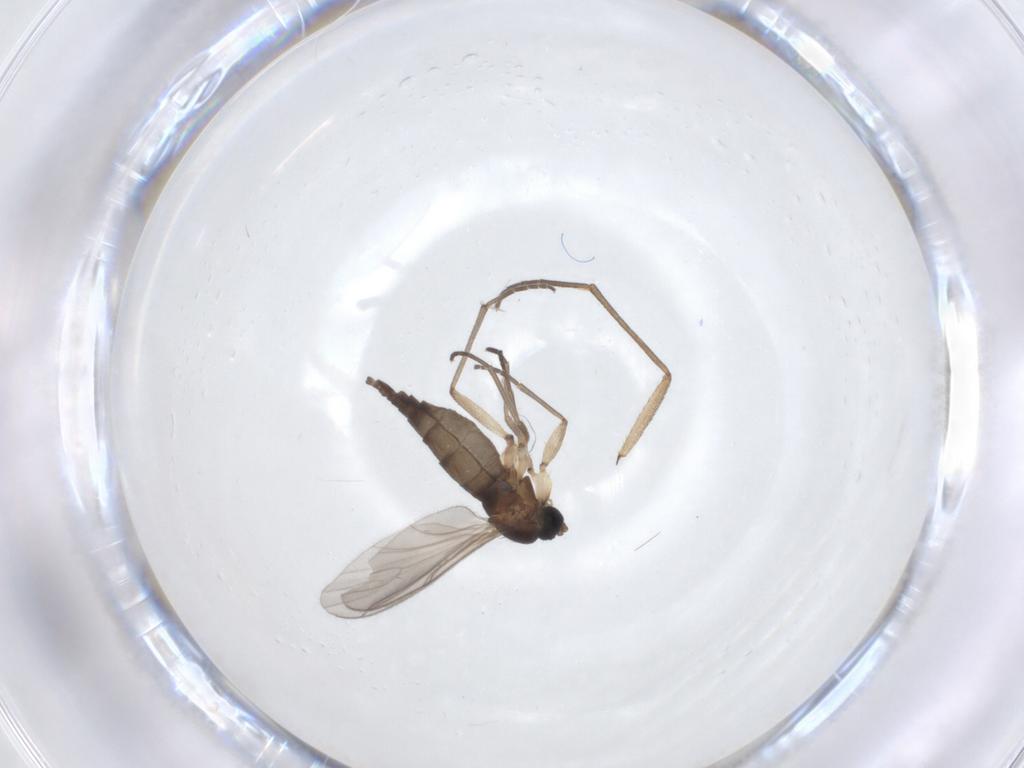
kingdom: Animalia
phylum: Arthropoda
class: Insecta
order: Diptera
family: Sciaridae
